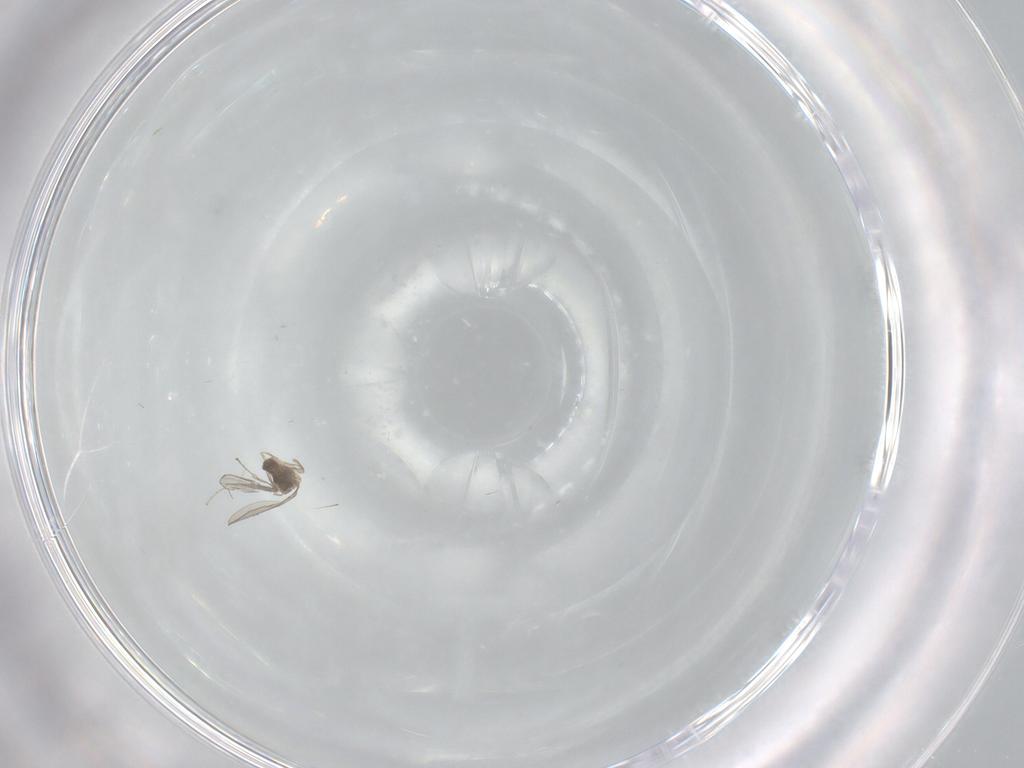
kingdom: Animalia
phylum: Arthropoda
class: Insecta
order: Diptera
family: Cecidomyiidae
